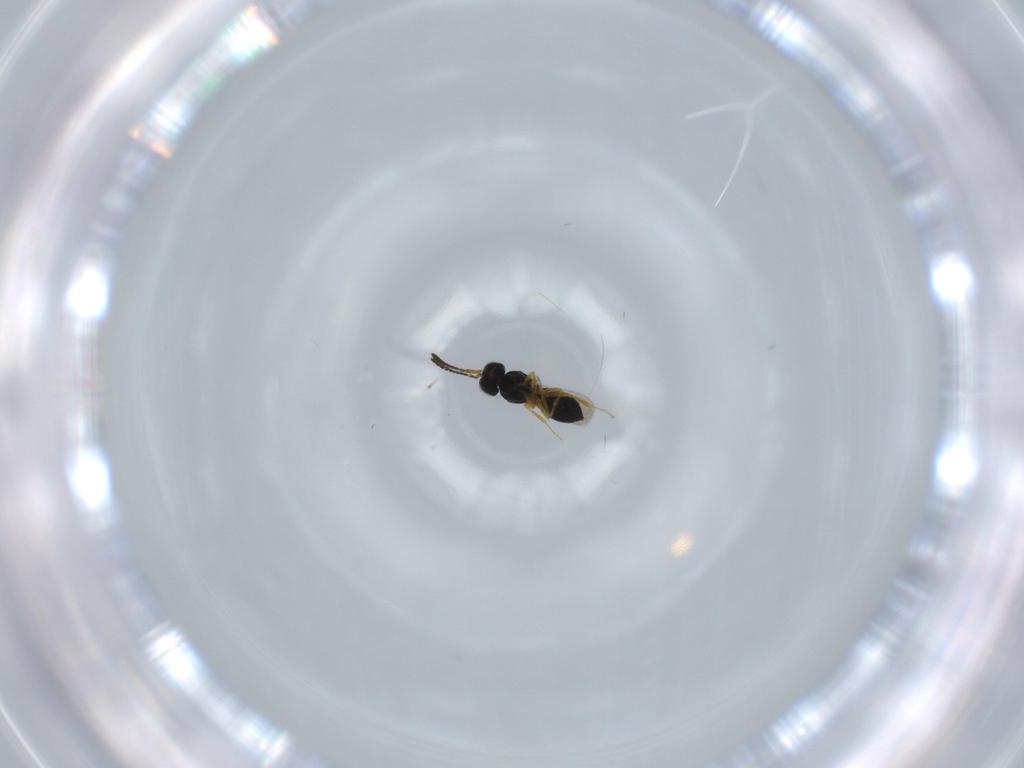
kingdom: Animalia
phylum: Arthropoda
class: Insecta
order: Hymenoptera
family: Scelionidae
